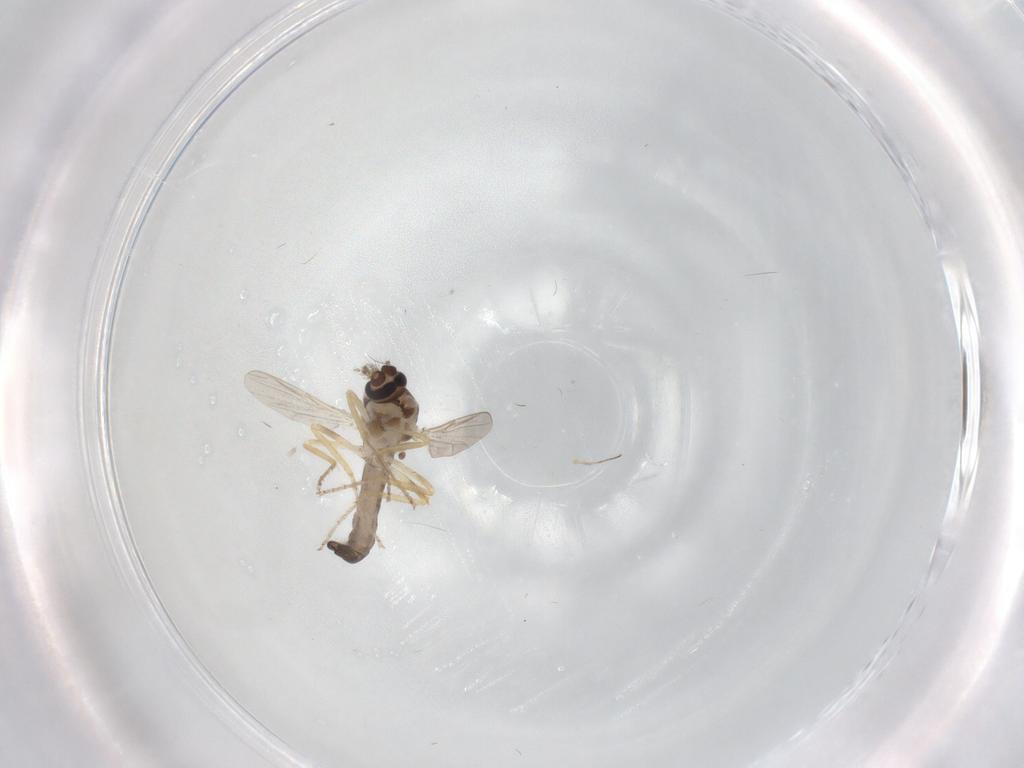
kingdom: Animalia
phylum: Arthropoda
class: Insecta
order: Diptera
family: Ceratopogonidae
